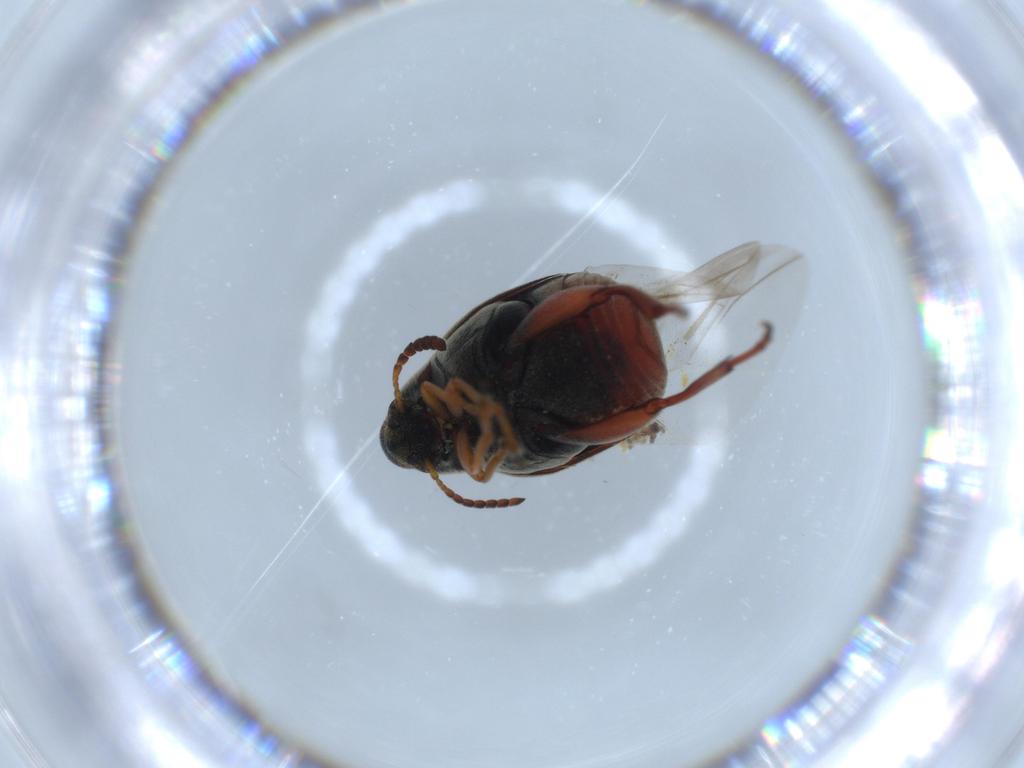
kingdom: Animalia
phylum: Arthropoda
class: Insecta
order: Coleoptera
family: Chrysomelidae
